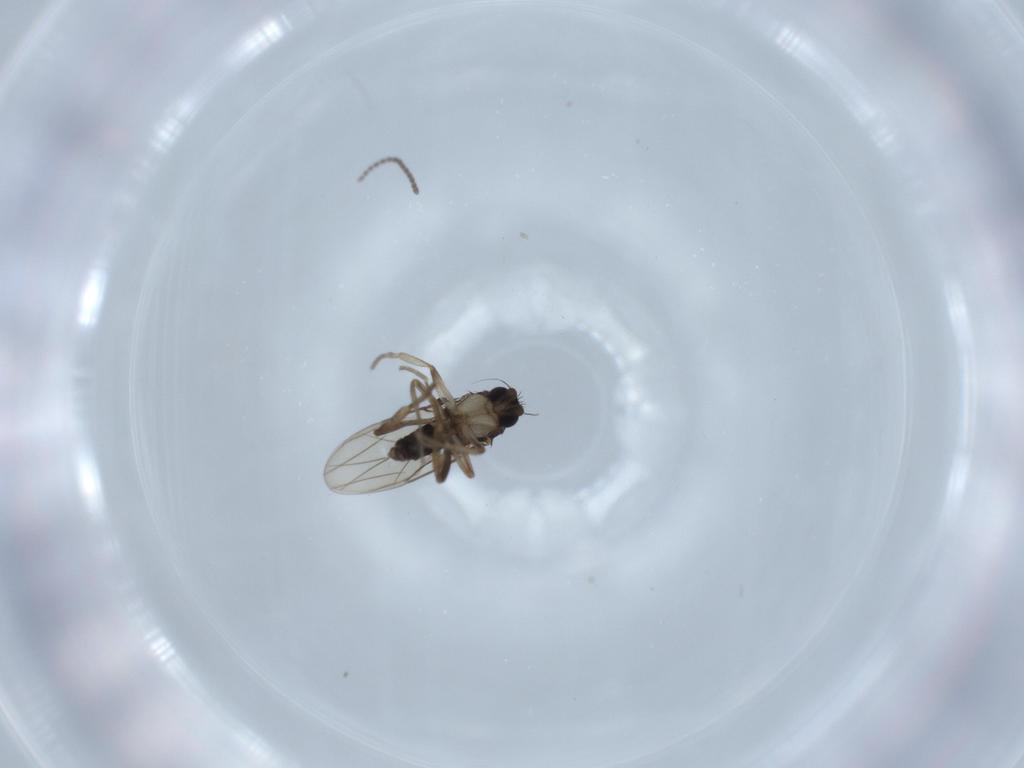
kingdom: Animalia
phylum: Arthropoda
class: Insecta
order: Diptera
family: Phoridae
